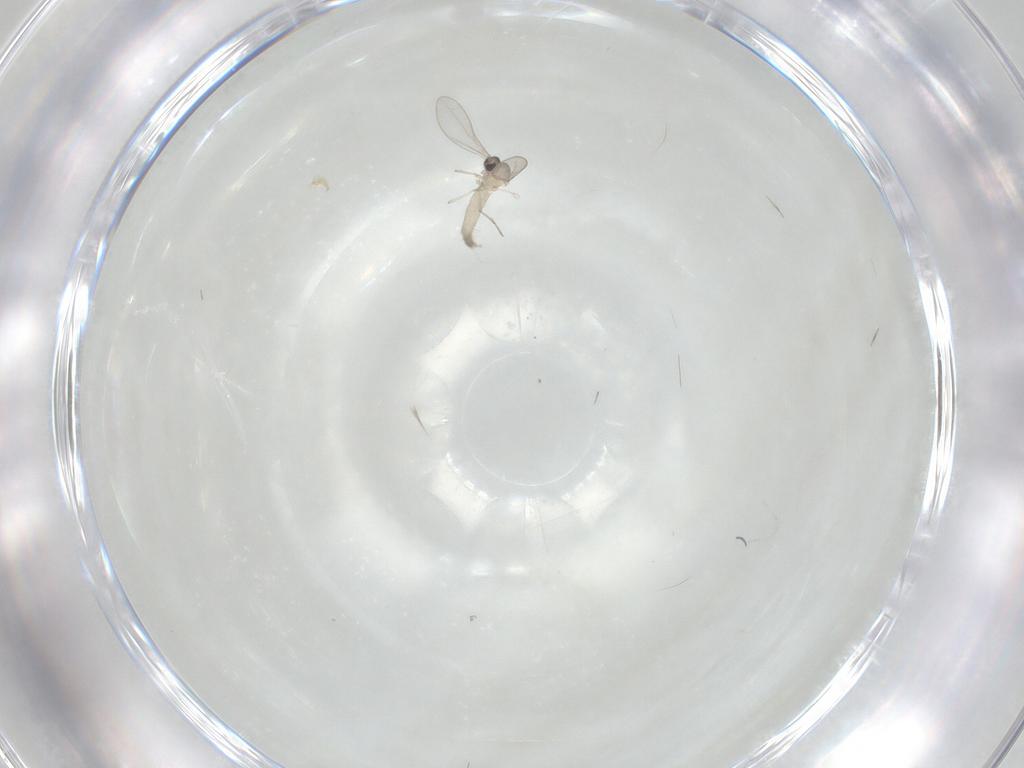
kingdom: Animalia
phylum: Arthropoda
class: Insecta
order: Diptera
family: Cecidomyiidae
